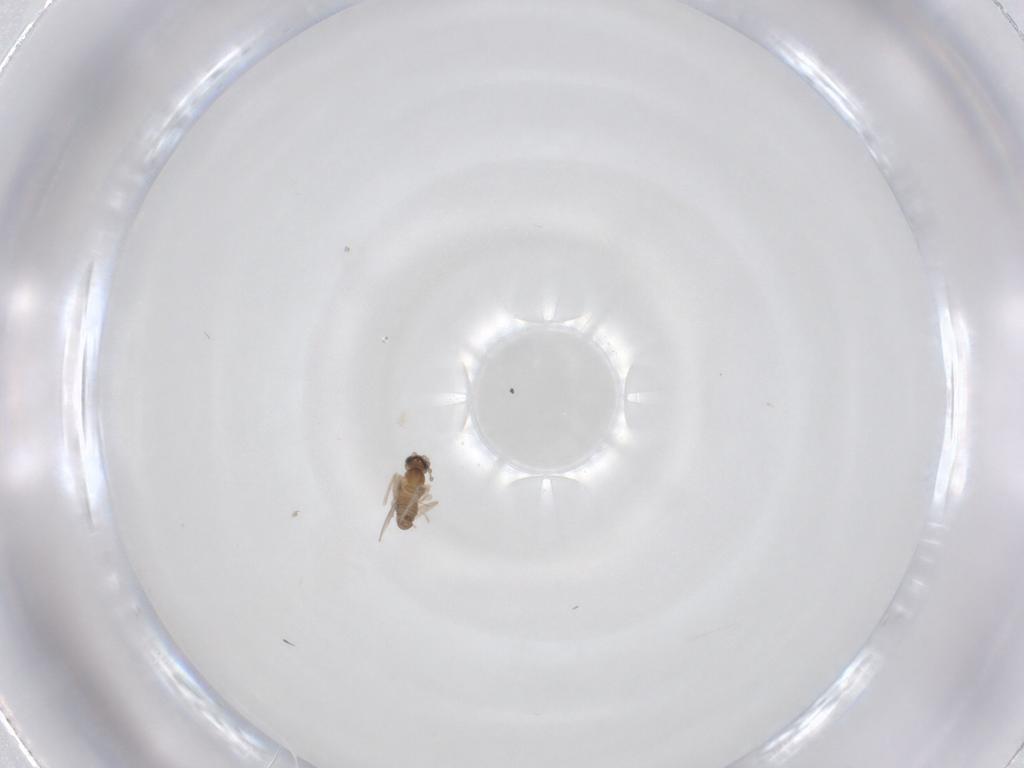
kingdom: Animalia
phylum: Arthropoda
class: Insecta
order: Diptera
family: Cecidomyiidae
